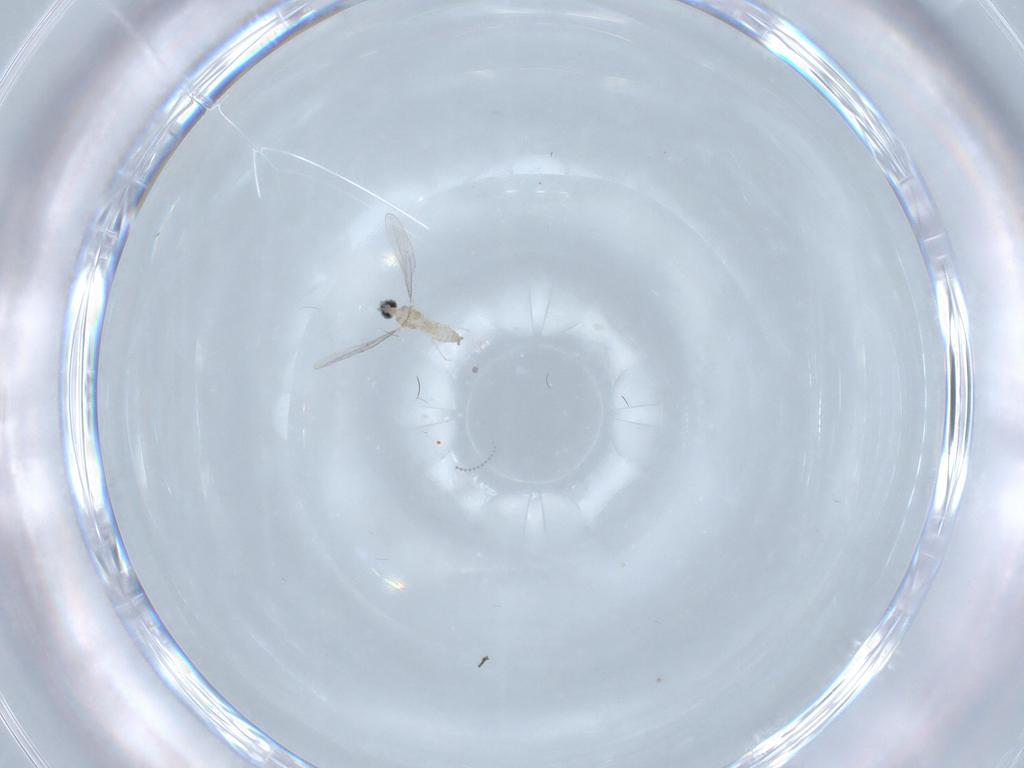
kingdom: Animalia
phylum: Arthropoda
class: Insecta
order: Diptera
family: Cecidomyiidae
